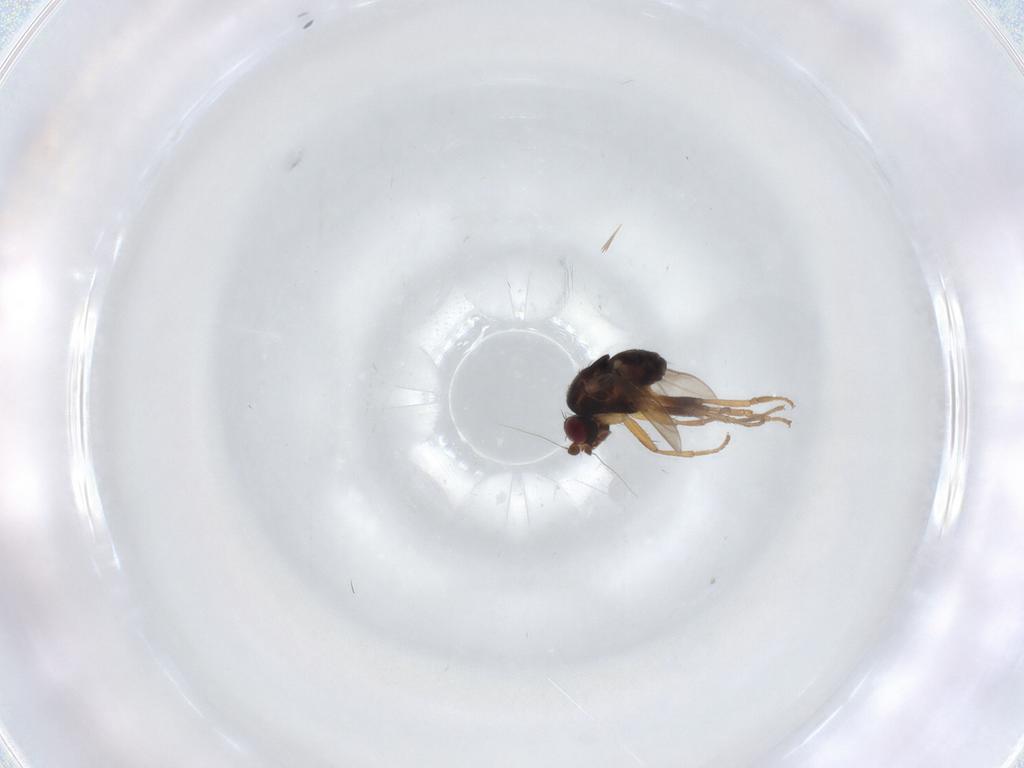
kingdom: Animalia
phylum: Arthropoda
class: Insecta
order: Diptera
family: Sphaeroceridae
